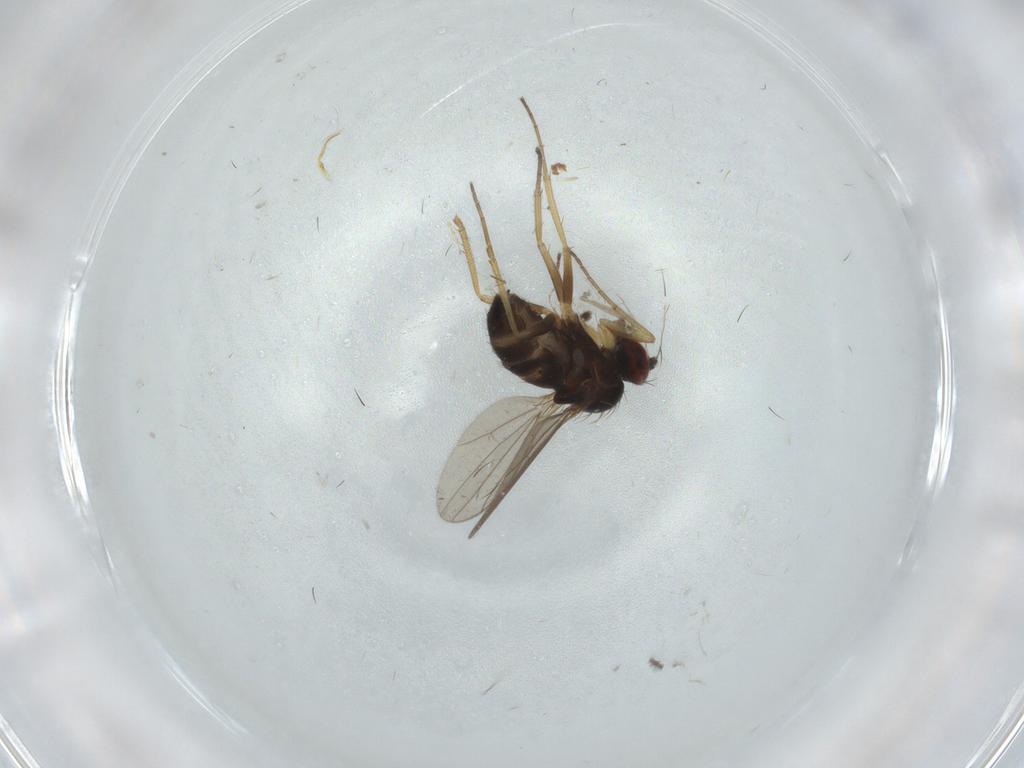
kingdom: Animalia
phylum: Arthropoda
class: Insecta
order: Diptera
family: Dolichopodidae
